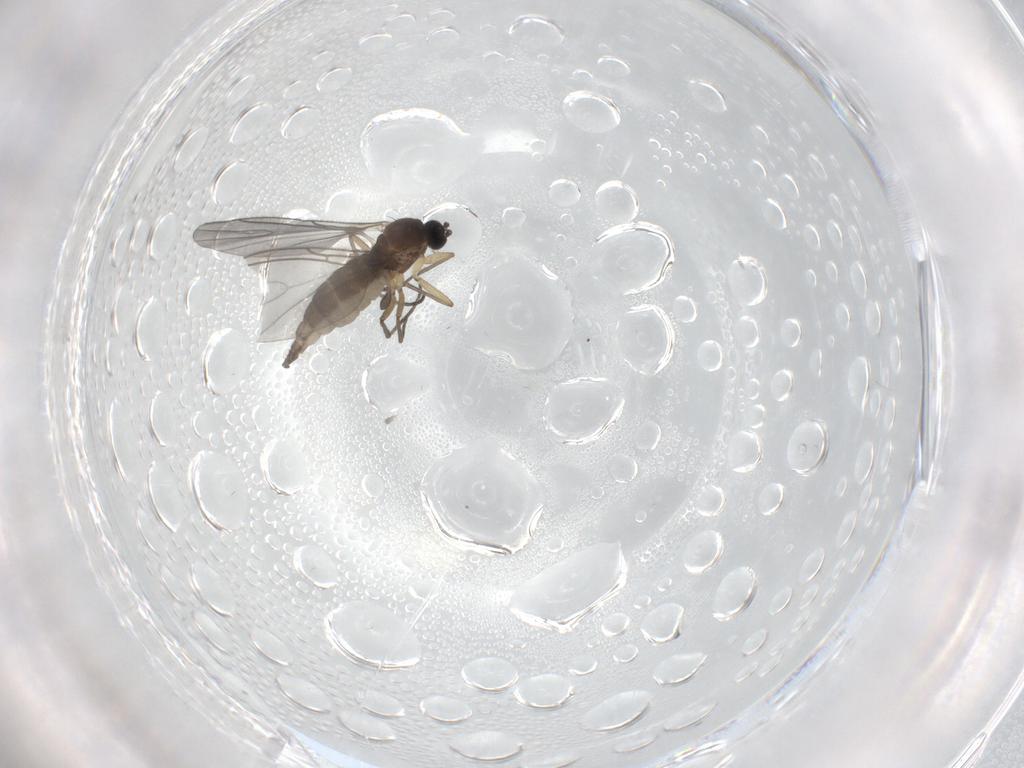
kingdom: Animalia
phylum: Arthropoda
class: Insecta
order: Diptera
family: Sciaridae
